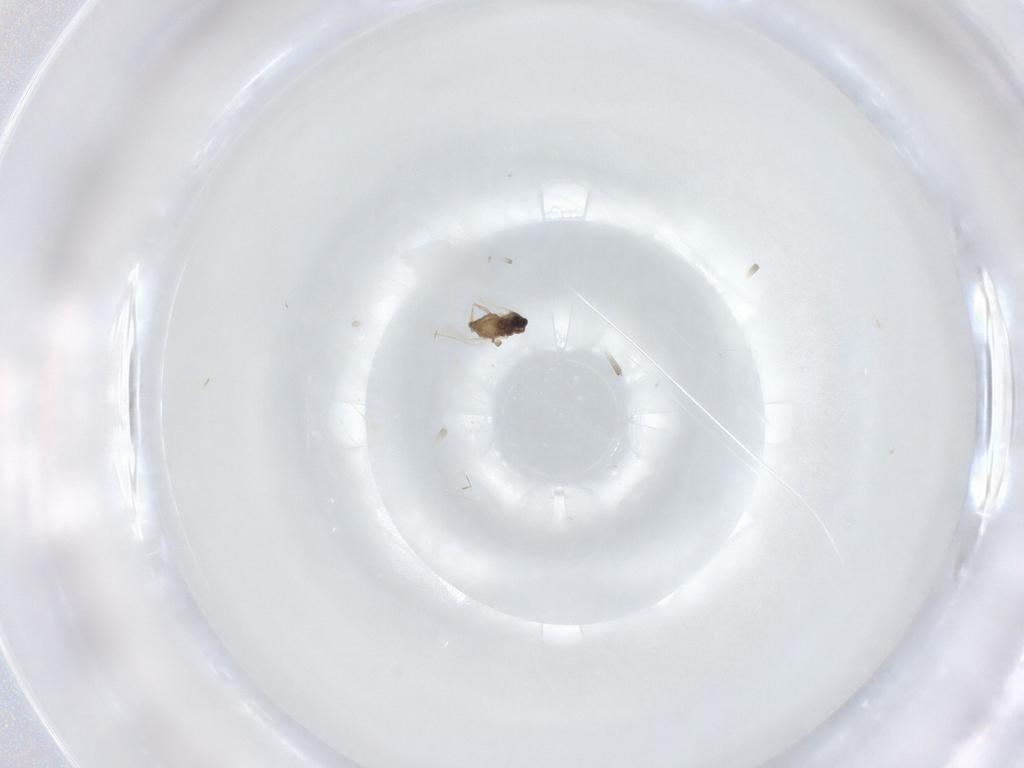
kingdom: Animalia
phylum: Arthropoda
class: Insecta
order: Diptera
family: Cecidomyiidae
